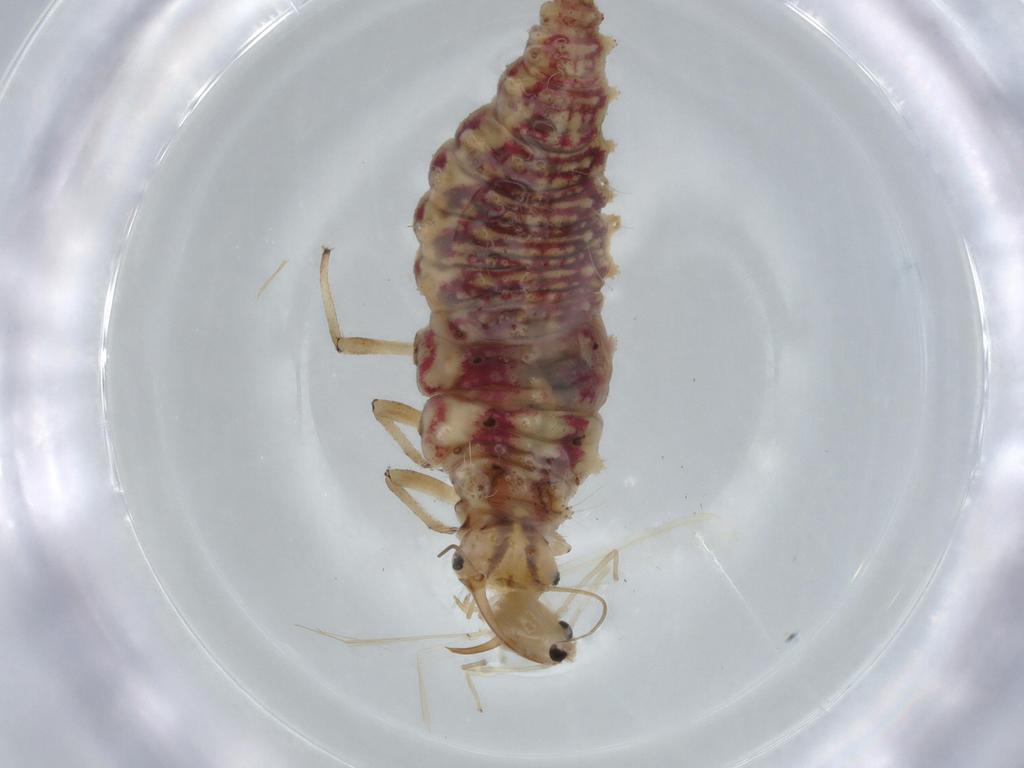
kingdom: Animalia
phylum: Arthropoda
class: Insecta
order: Diptera
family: Chironomidae
